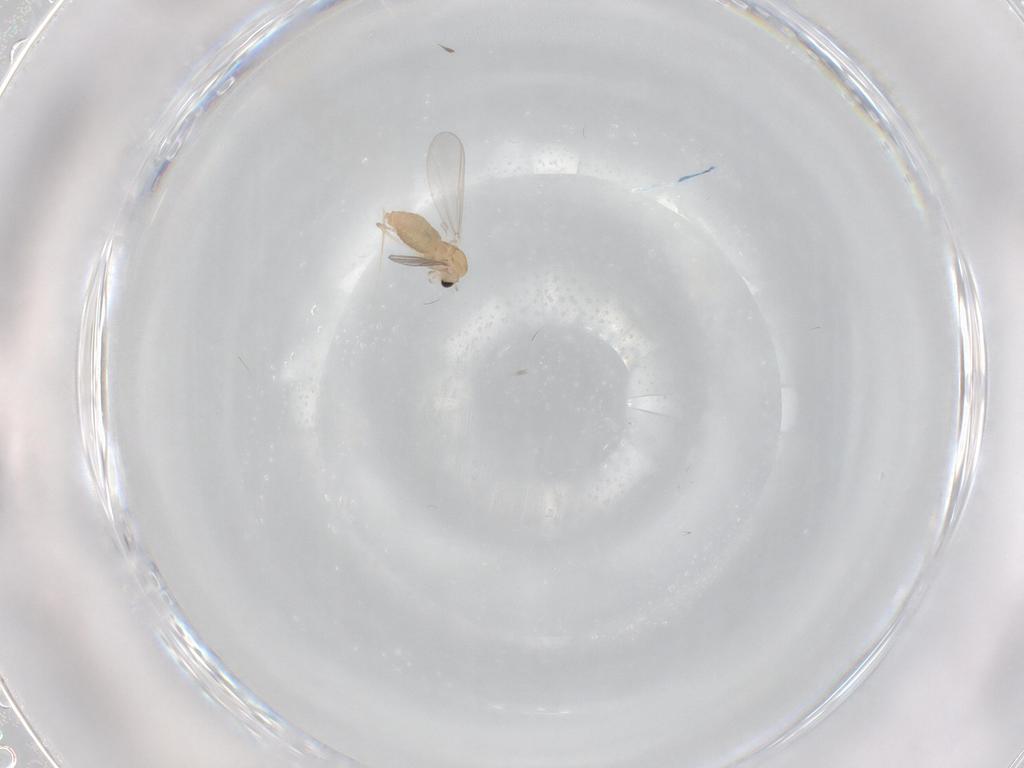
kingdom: Animalia
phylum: Arthropoda
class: Insecta
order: Diptera
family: Chironomidae
